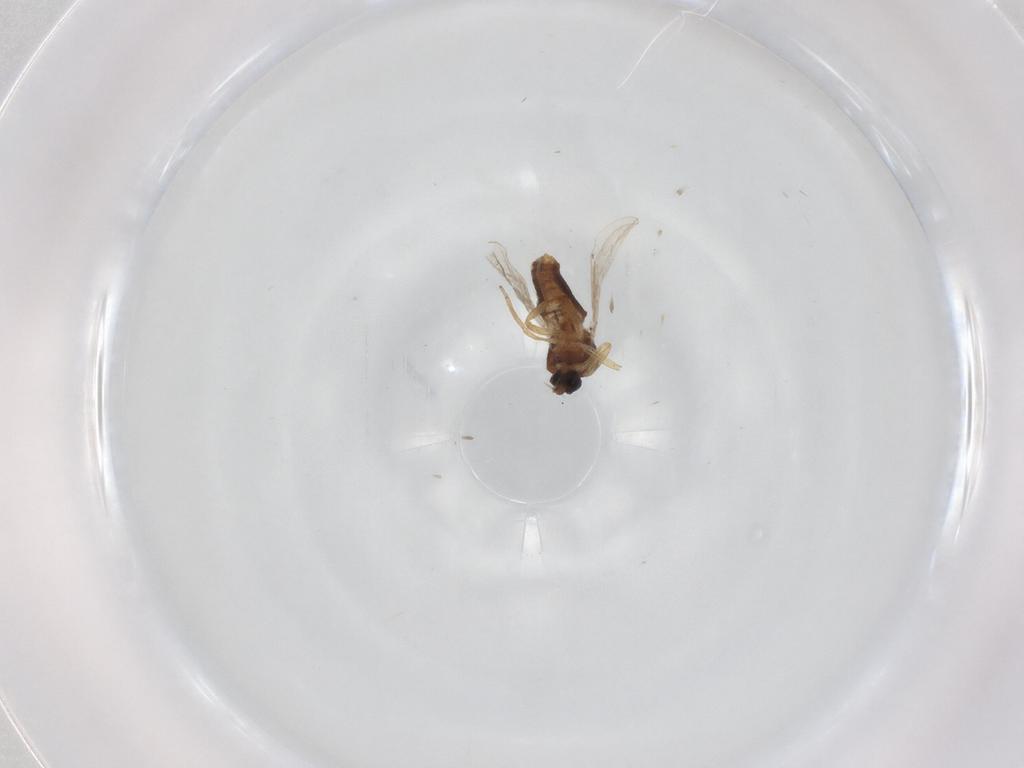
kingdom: Animalia
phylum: Arthropoda
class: Insecta
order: Diptera
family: Ceratopogonidae
